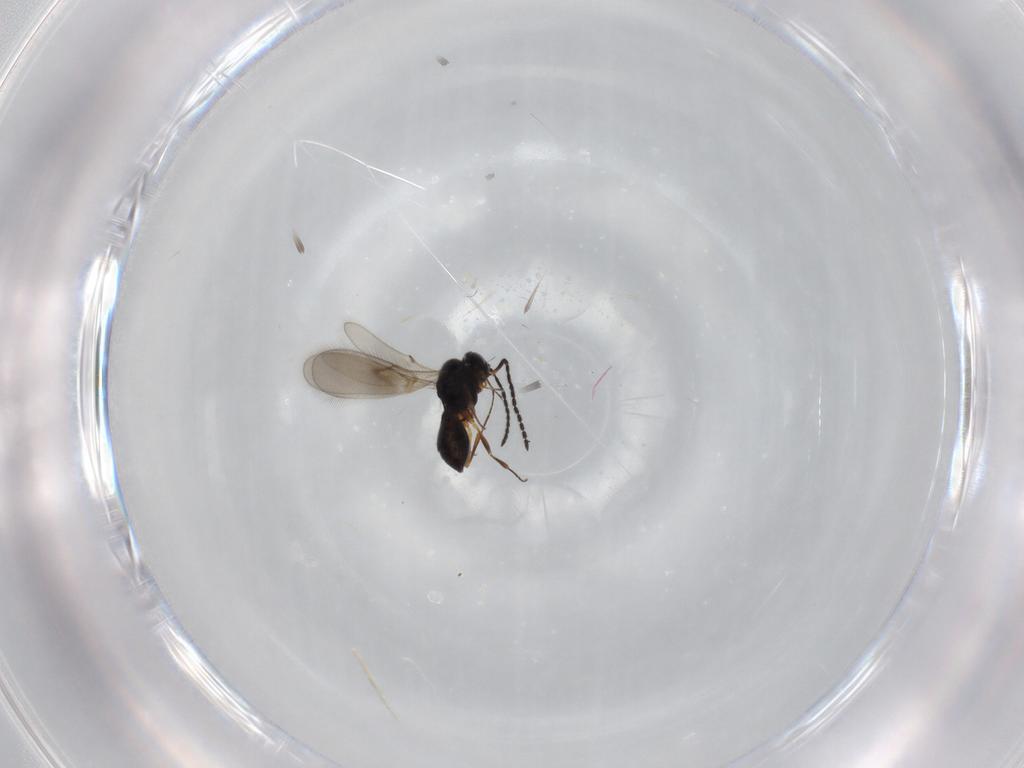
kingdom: Animalia
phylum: Arthropoda
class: Insecta
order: Hymenoptera
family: Scelionidae
